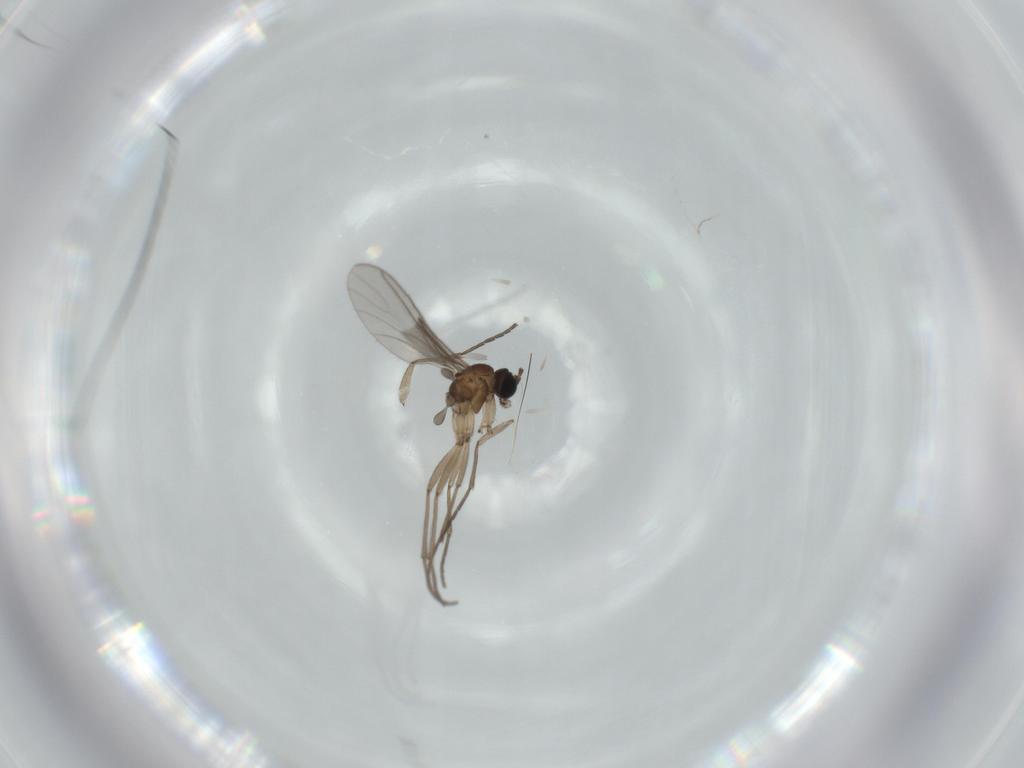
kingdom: Animalia
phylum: Arthropoda
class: Insecta
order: Diptera
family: Sciaridae
